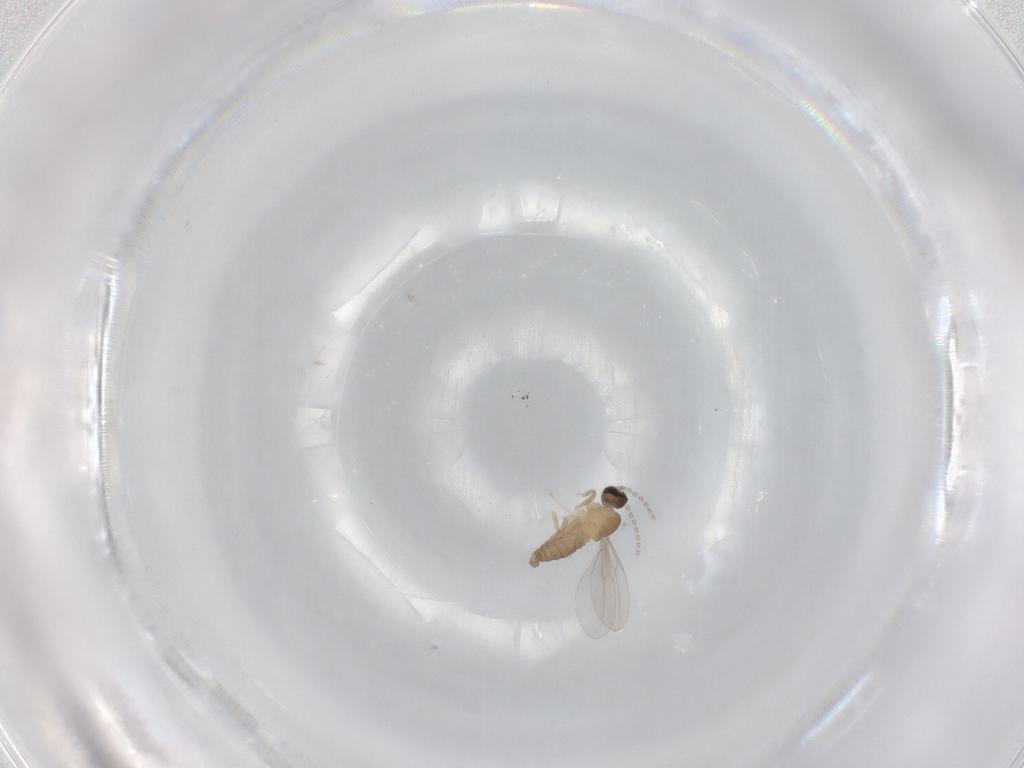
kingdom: Animalia
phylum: Arthropoda
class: Insecta
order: Diptera
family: Cecidomyiidae
